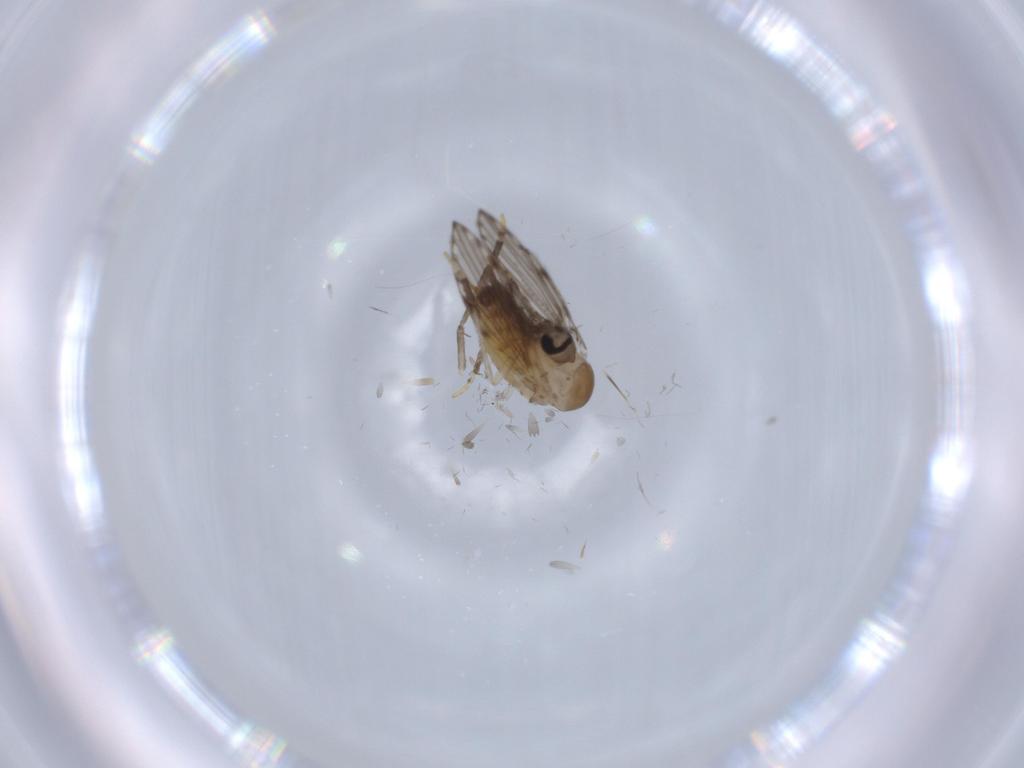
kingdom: Animalia
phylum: Arthropoda
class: Insecta
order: Diptera
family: Psychodidae
